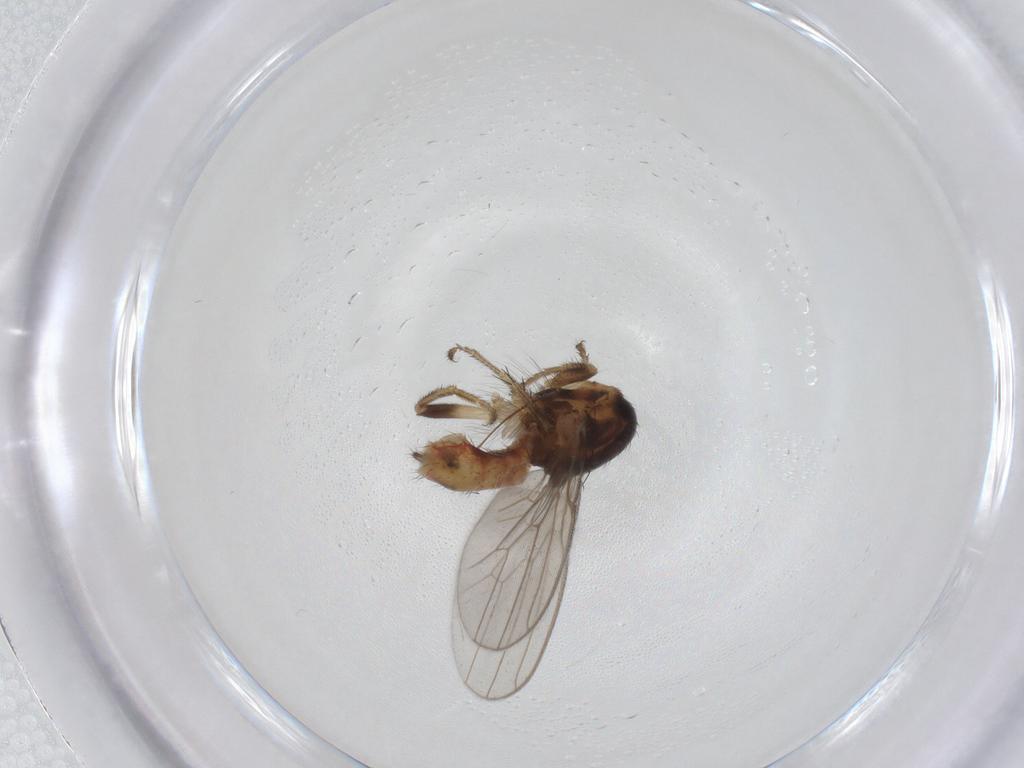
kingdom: Animalia
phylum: Arthropoda
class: Insecta
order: Diptera
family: Sphaeroceridae
